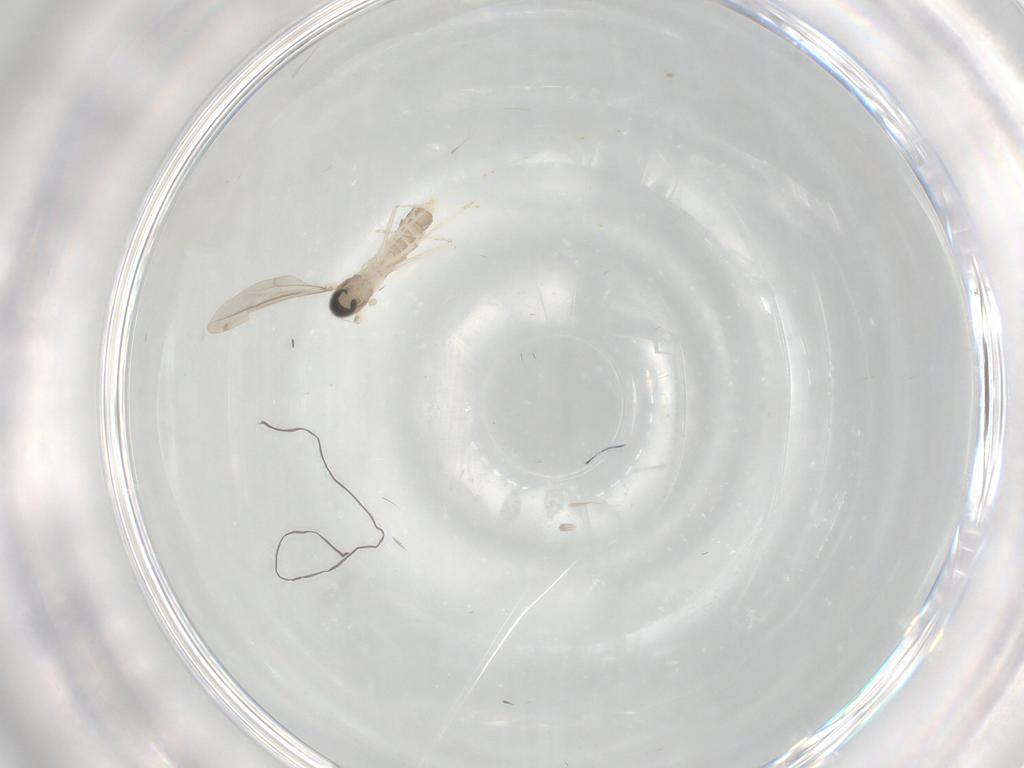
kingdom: Animalia
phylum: Arthropoda
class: Insecta
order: Diptera
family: Cecidomyiidae
